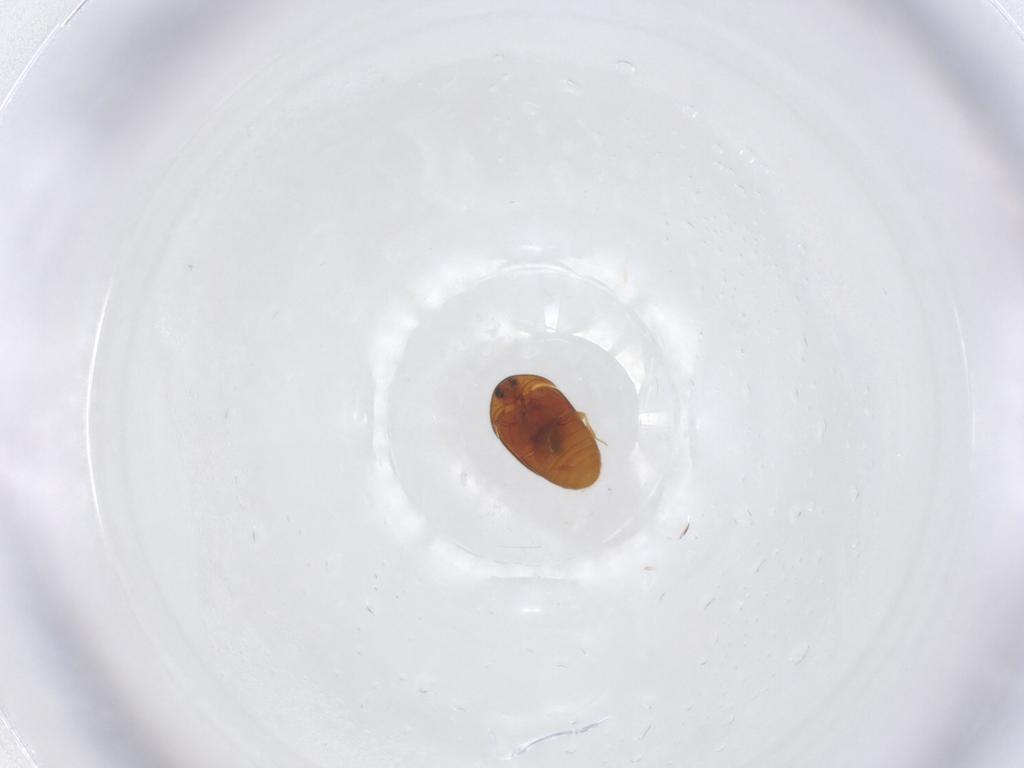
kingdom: Animalia
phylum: Arthropoda
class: Insecta
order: Coleoptera
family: Corylophidae
